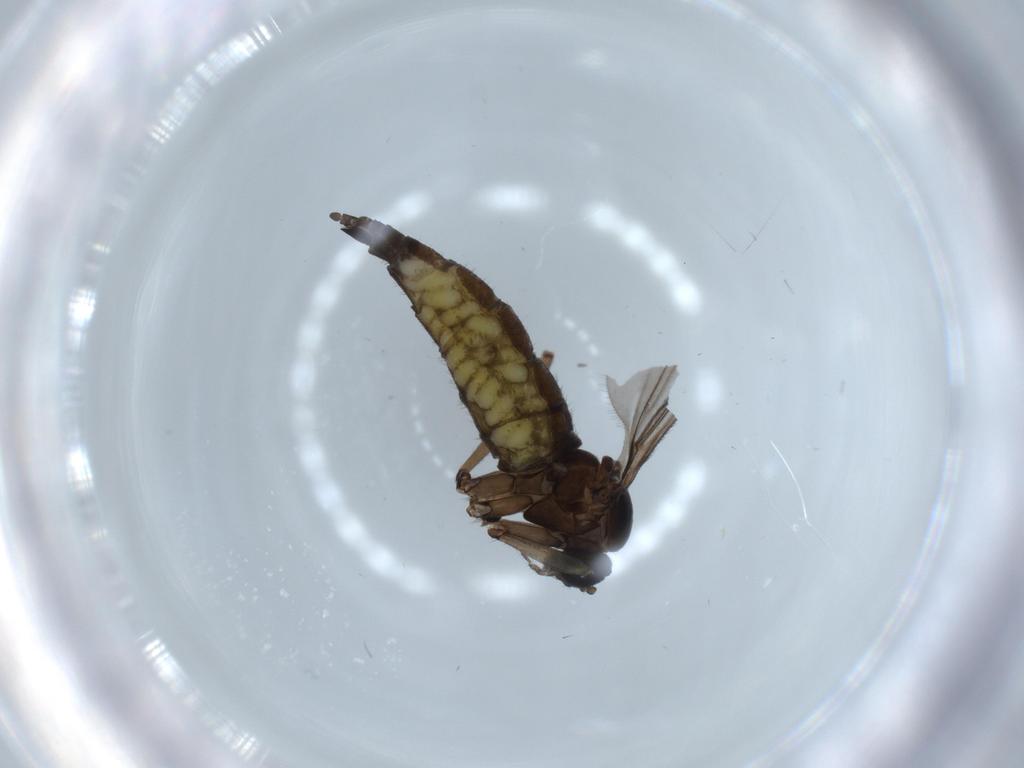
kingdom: Animalia
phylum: Arthropoda
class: Insecta
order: Diptera
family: Sciaridae
